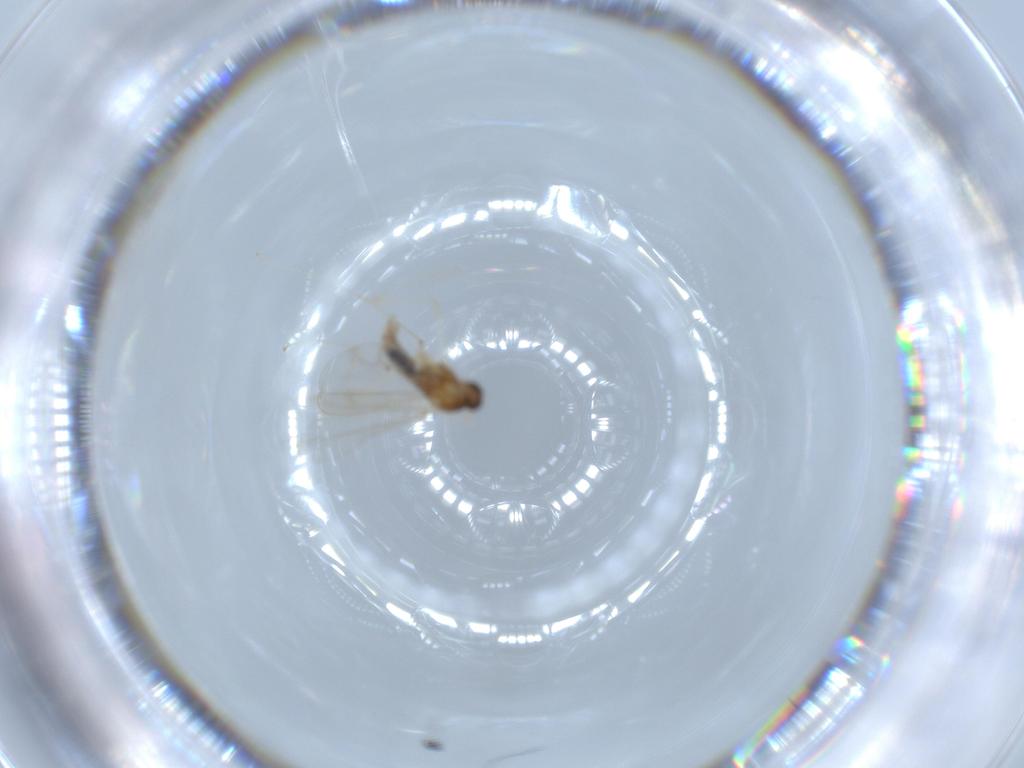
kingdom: Animalia
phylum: Arthropoda
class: Insecta
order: Diptera
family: Sciaridae
